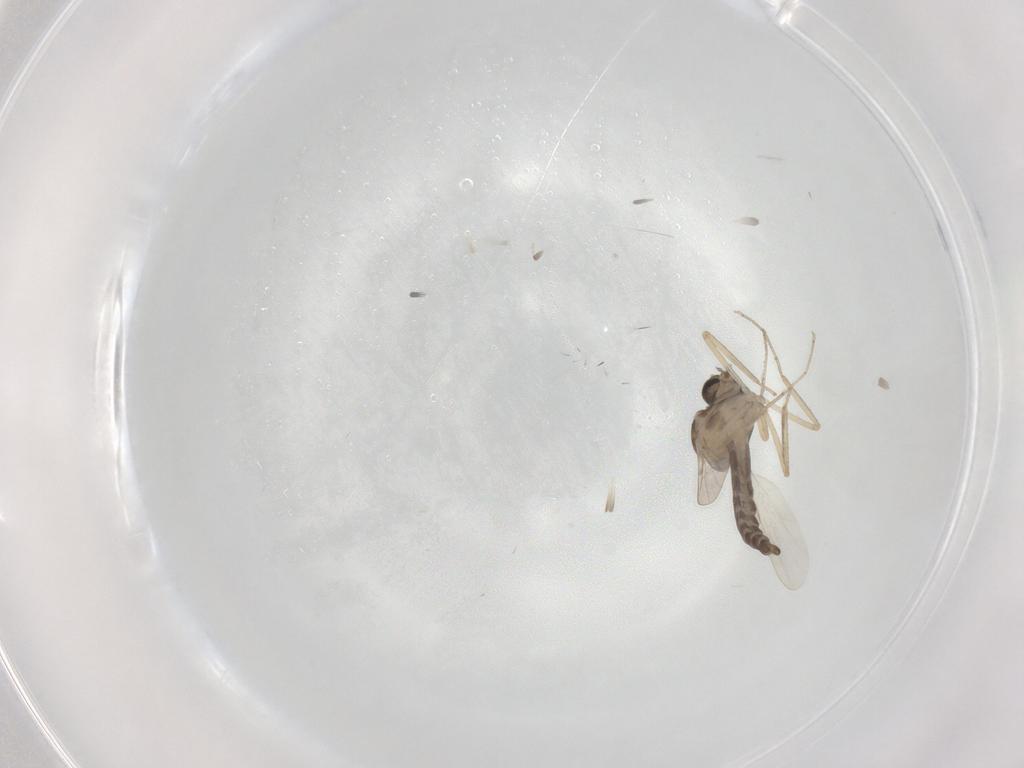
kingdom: Animalia
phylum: Arthropoda
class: Insecta
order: Diptera
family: Ceratopogonidae
